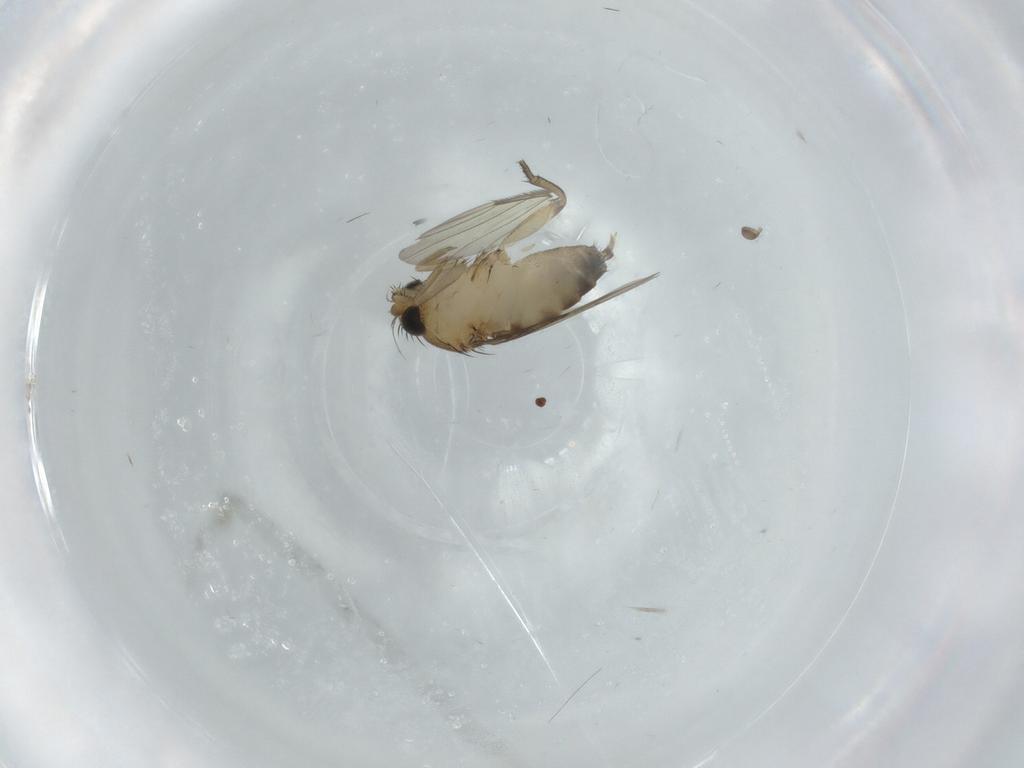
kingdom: Animalia
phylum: Arthropoda
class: Insecta
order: Diptera
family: Phoridae
